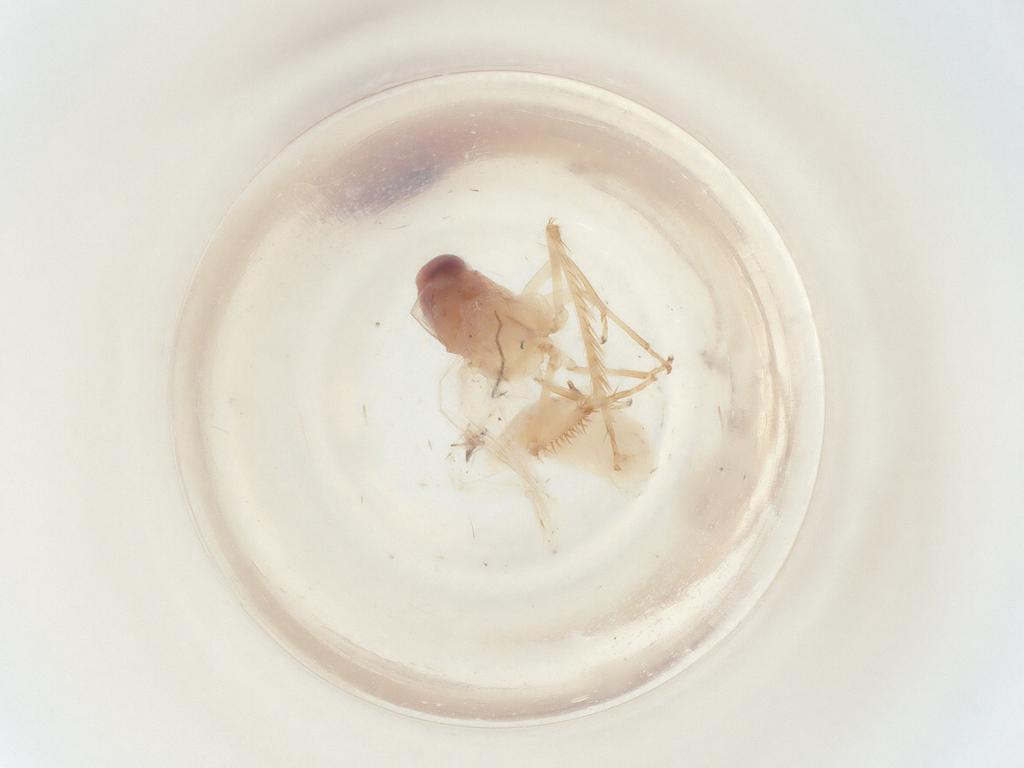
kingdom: Animalia
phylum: Arthropoda
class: Insecta
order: Hemiptera
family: Cicadellidae
